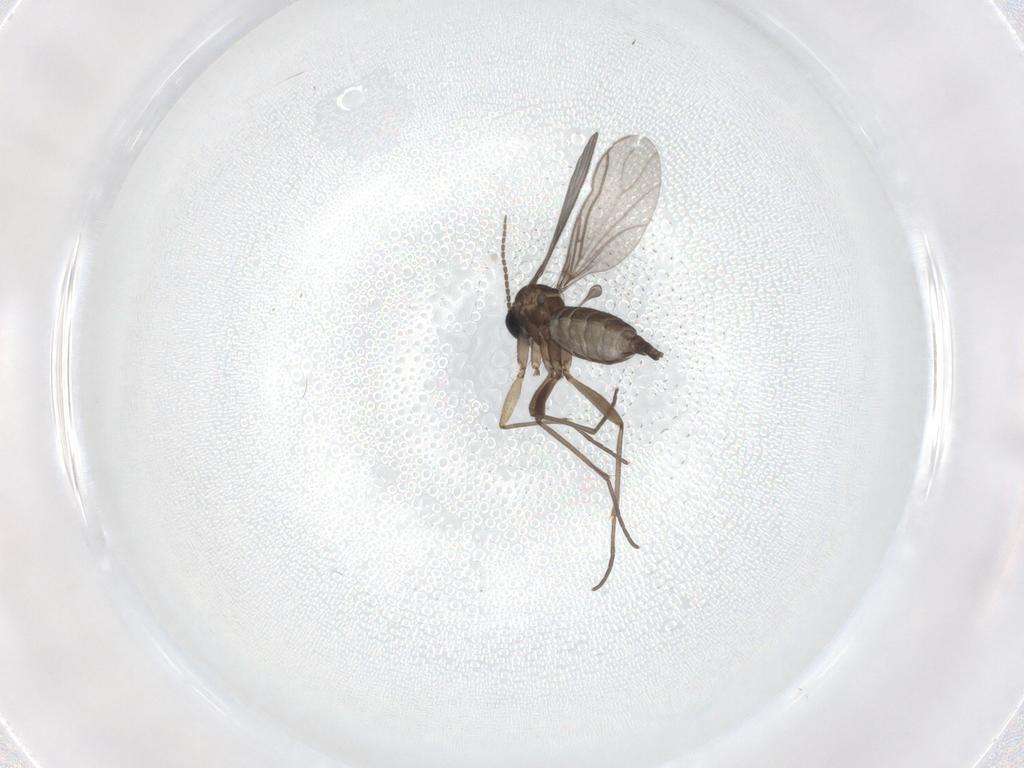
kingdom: Animalia
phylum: Arthropoda
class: Insecta
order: Diptera
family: Sciaridae
